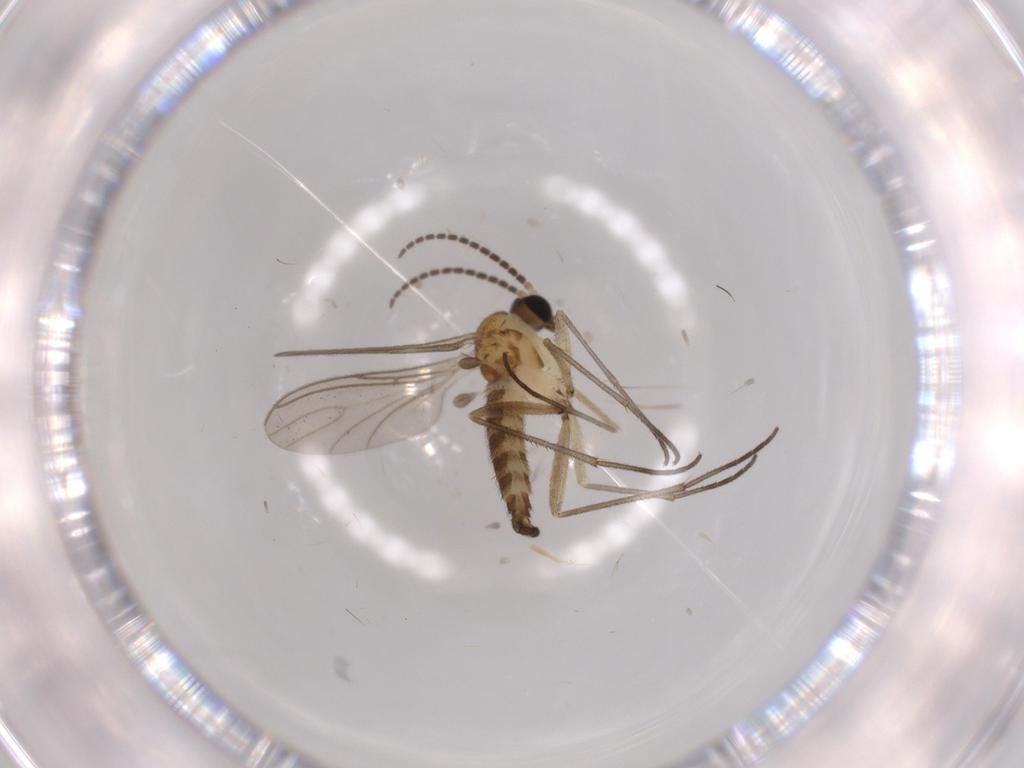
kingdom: Animalia
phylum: Arthropoda
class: Insecta
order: Diptera
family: Sciaridae
